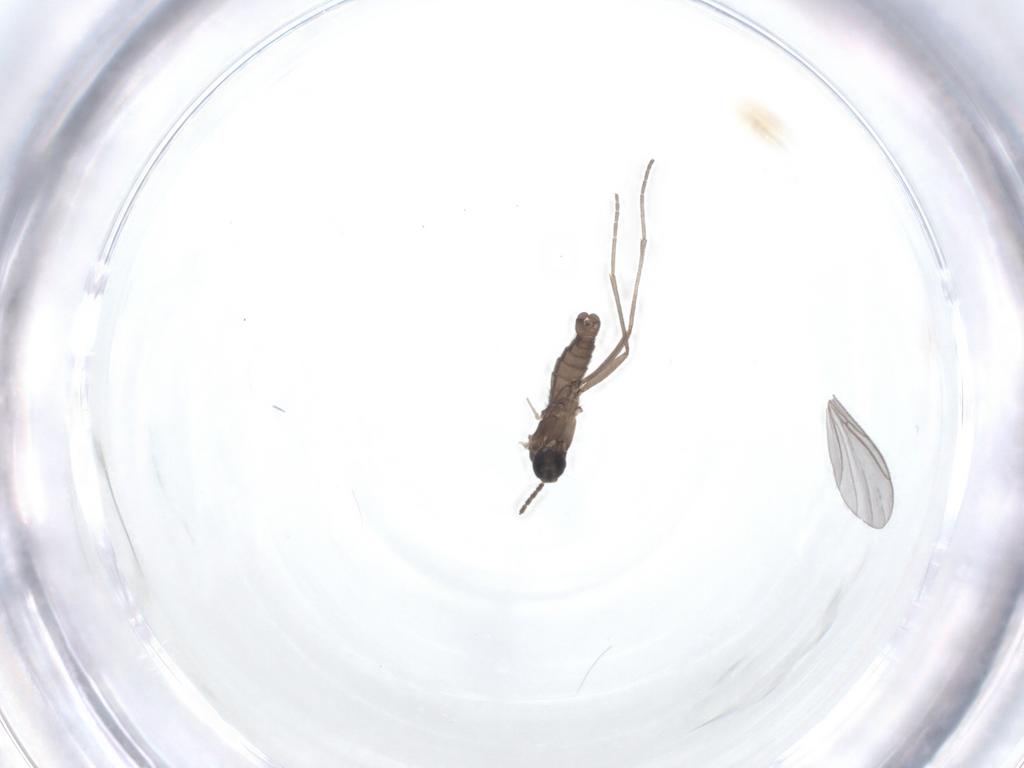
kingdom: Animalia
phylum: Arthropoda
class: Insecta
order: Diptera
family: Sciaridae
